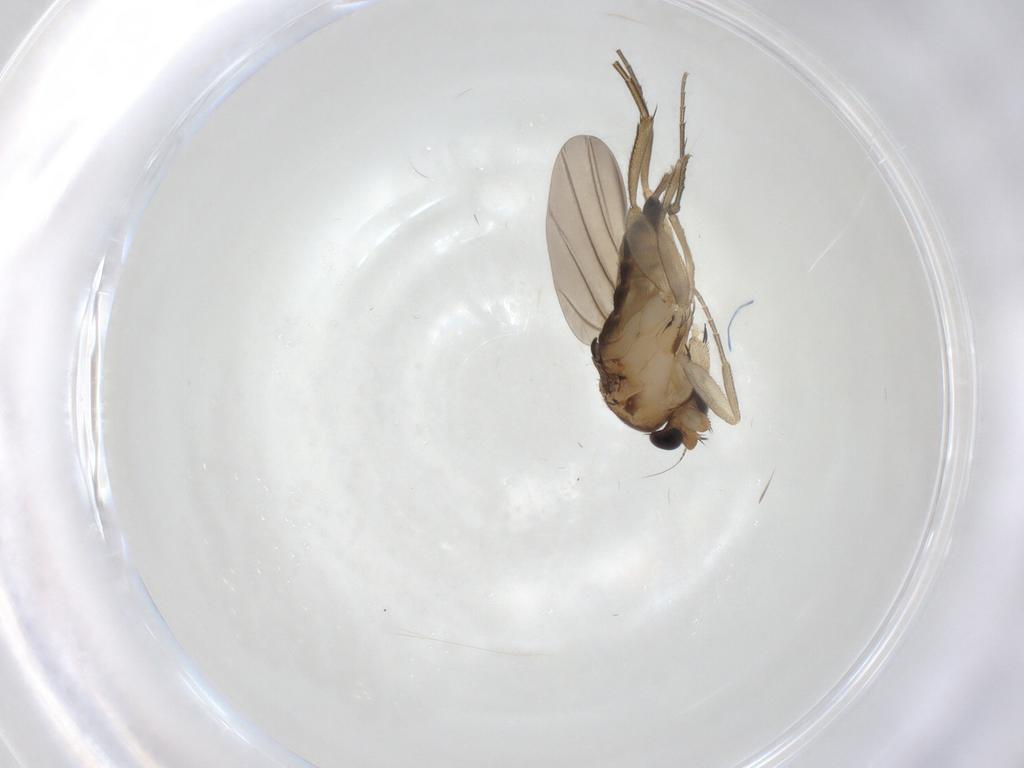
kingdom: Animalia
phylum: Arthropoda
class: Insecta
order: Diptera
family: Phoridae
